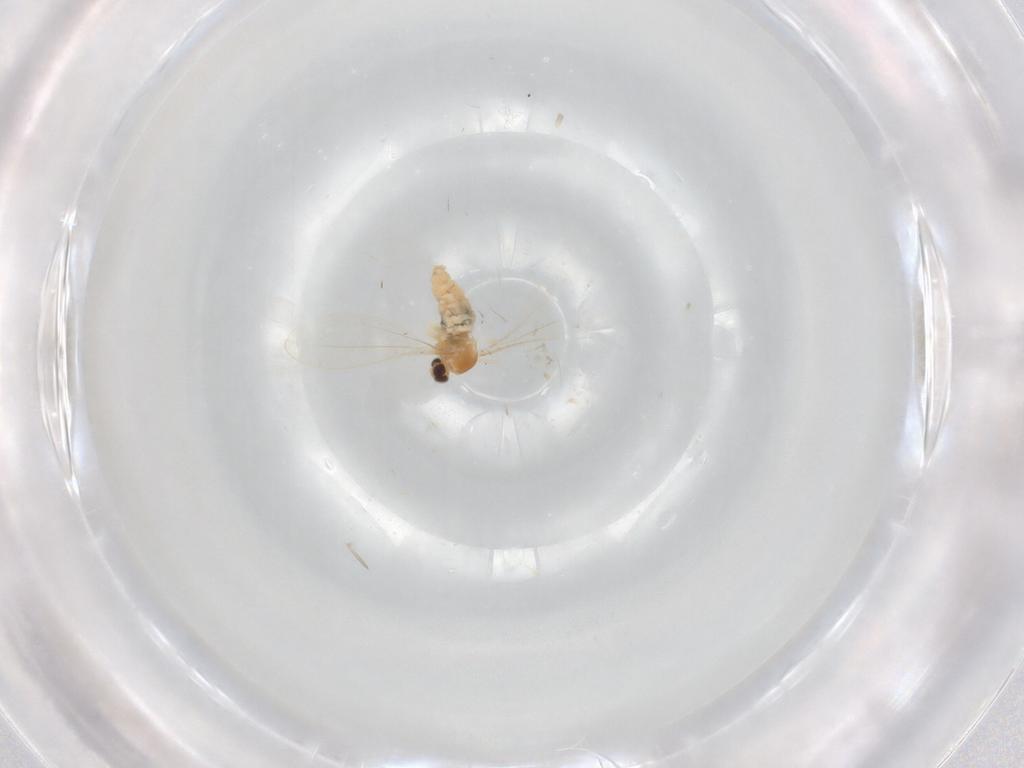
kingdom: Animalia
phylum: Arthropoda
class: Insecta
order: Diptera
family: Cecidomyiidae
